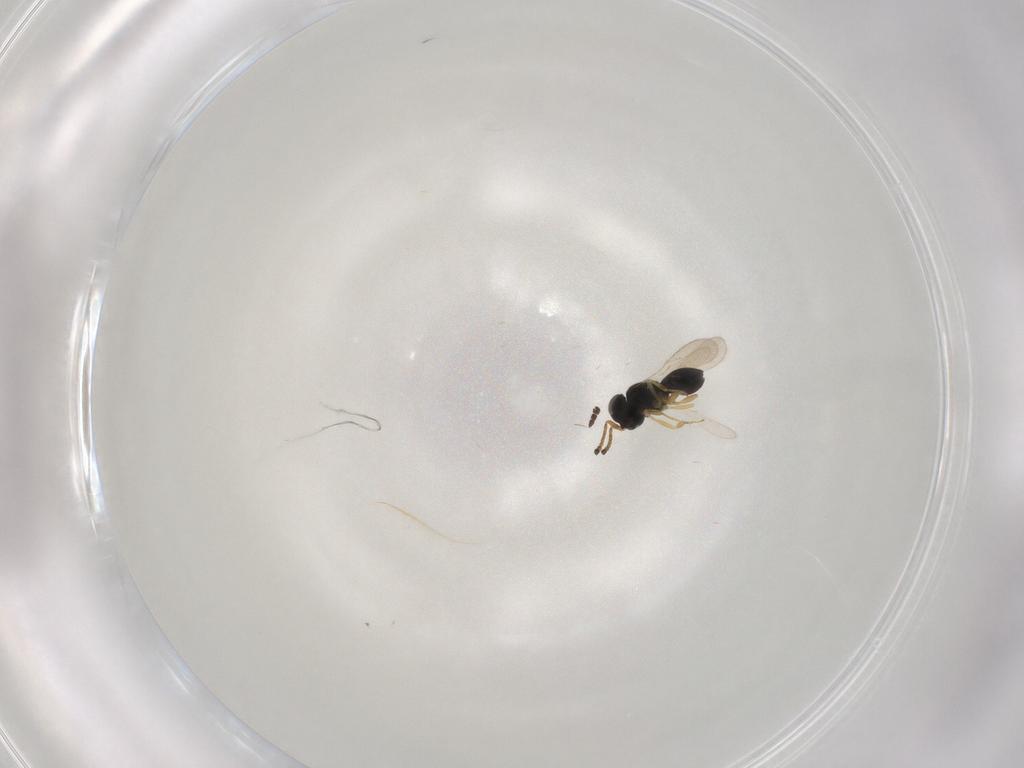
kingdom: Animalia
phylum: Arthropoda
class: Insecta
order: Hymenoptera
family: Scelionidae
